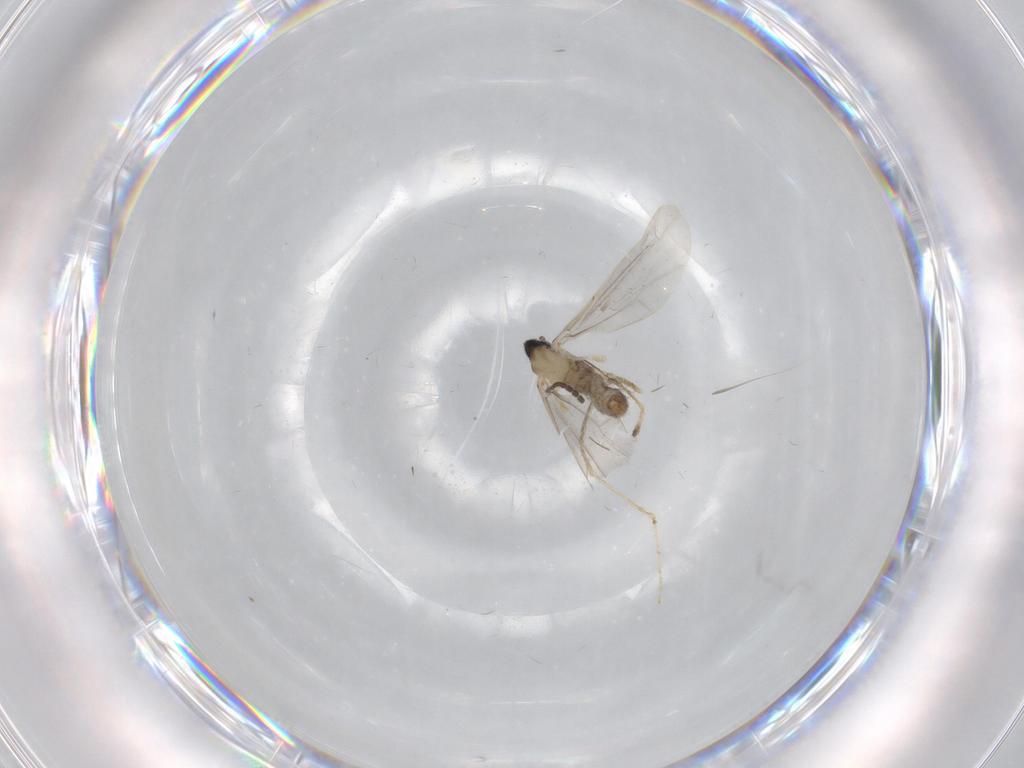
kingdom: Animalia
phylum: Arthropoda
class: Insecta
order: Diptera
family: Cecidomyiidae
